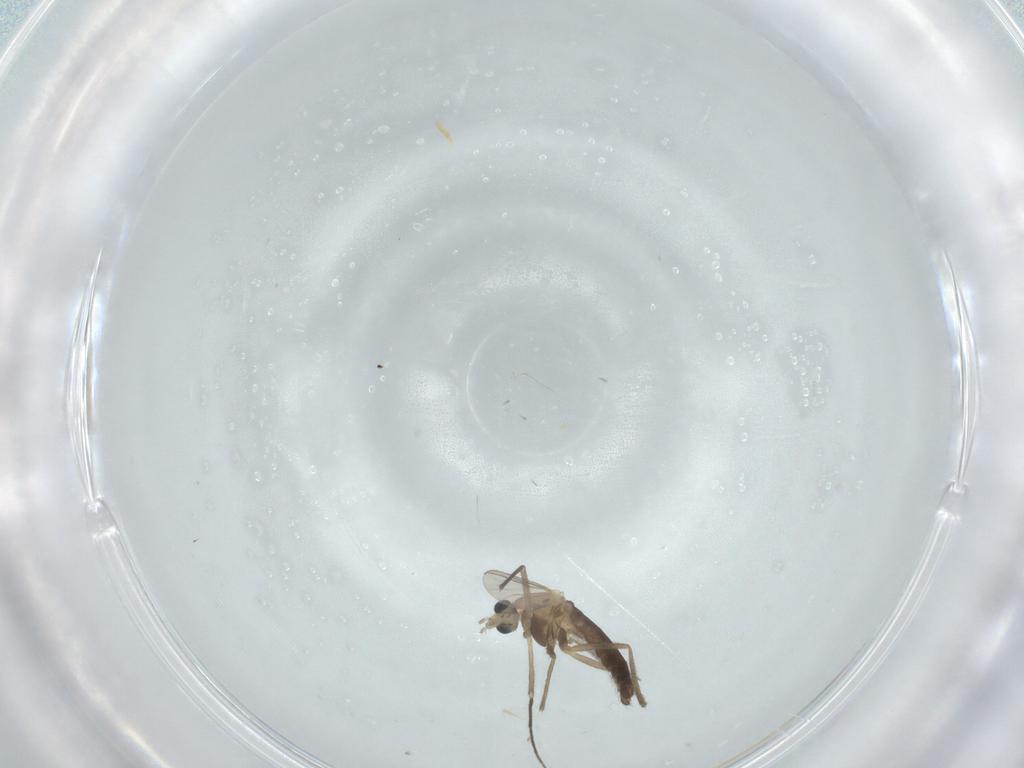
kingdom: Animalia
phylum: Arthropoda
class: Insecta
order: Diptera
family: Chironomidae
